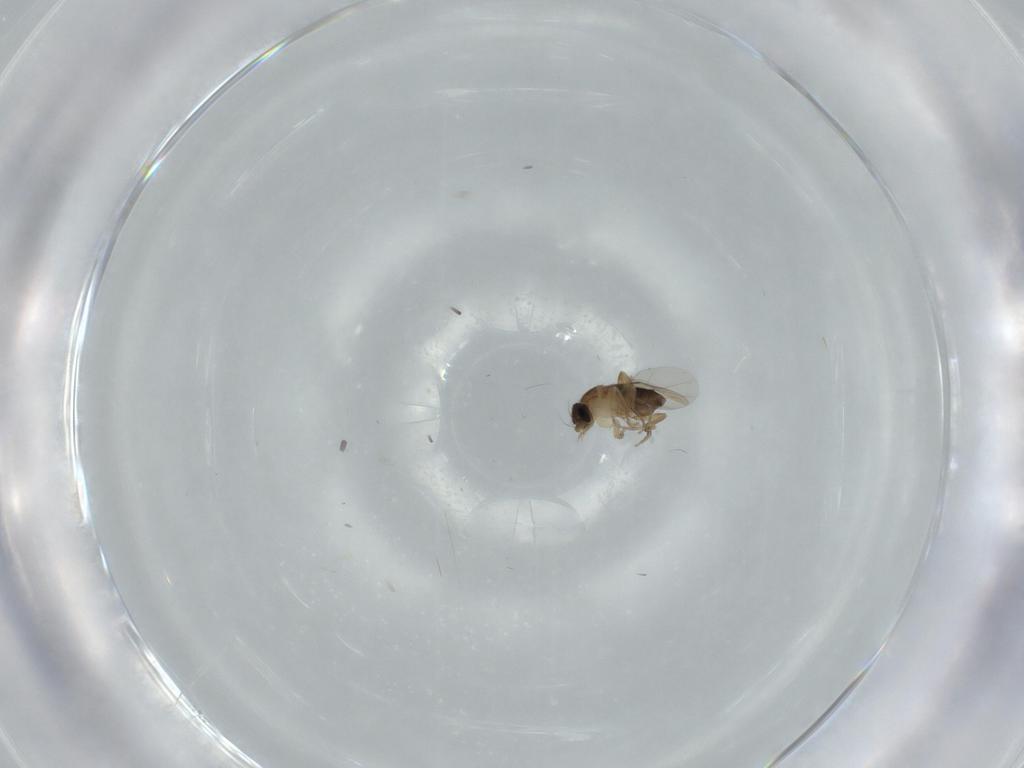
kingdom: Animalia
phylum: Arthropoda
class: Insecta
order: Diptera
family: Phoridae
